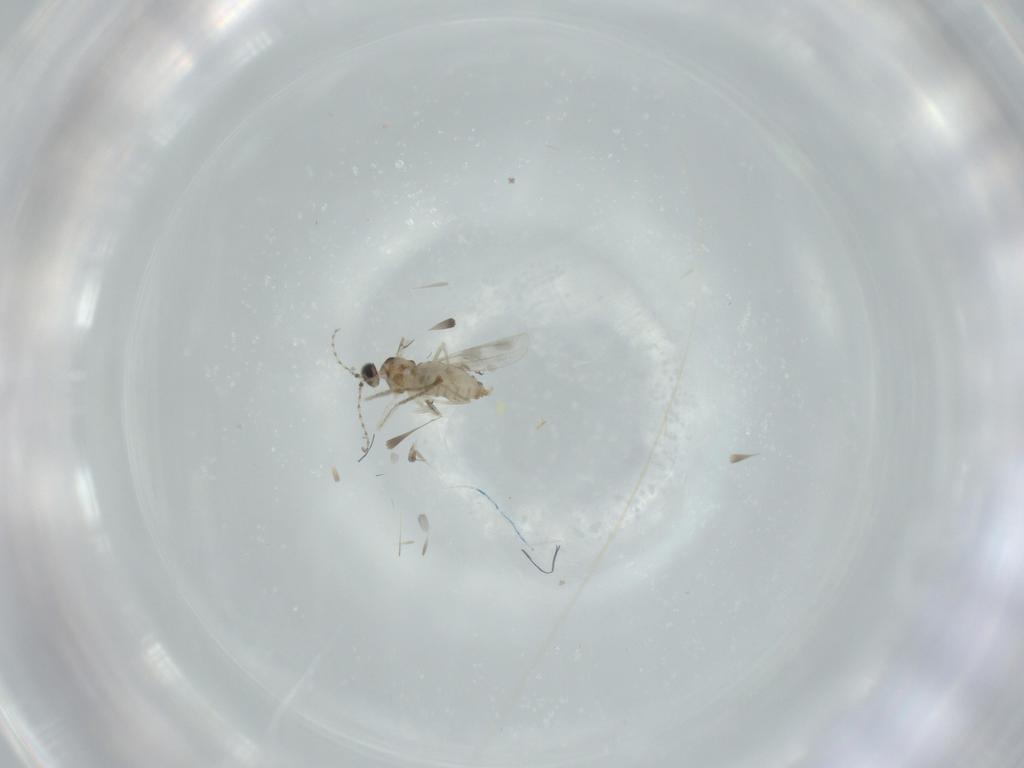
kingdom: Animalia
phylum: Arthropoda
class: Insecta
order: Diptera
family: Cecidomyiidae
